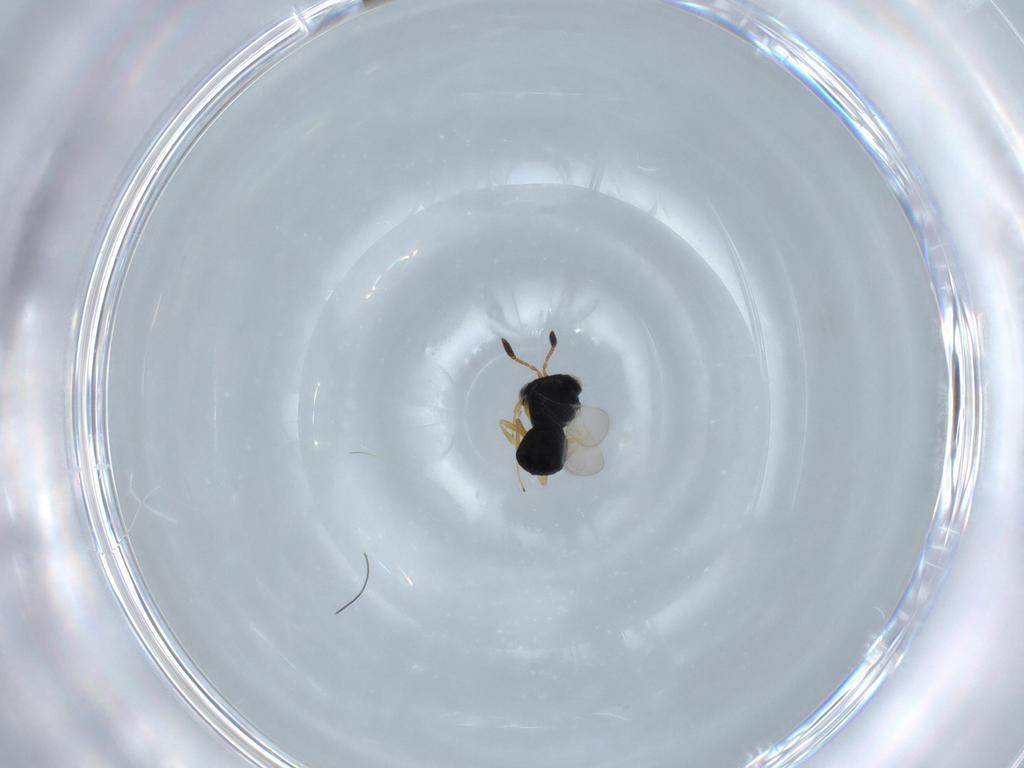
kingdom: Animalia
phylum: Arthropoda
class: Insecta
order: Hymenoptera
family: Scelionidae
